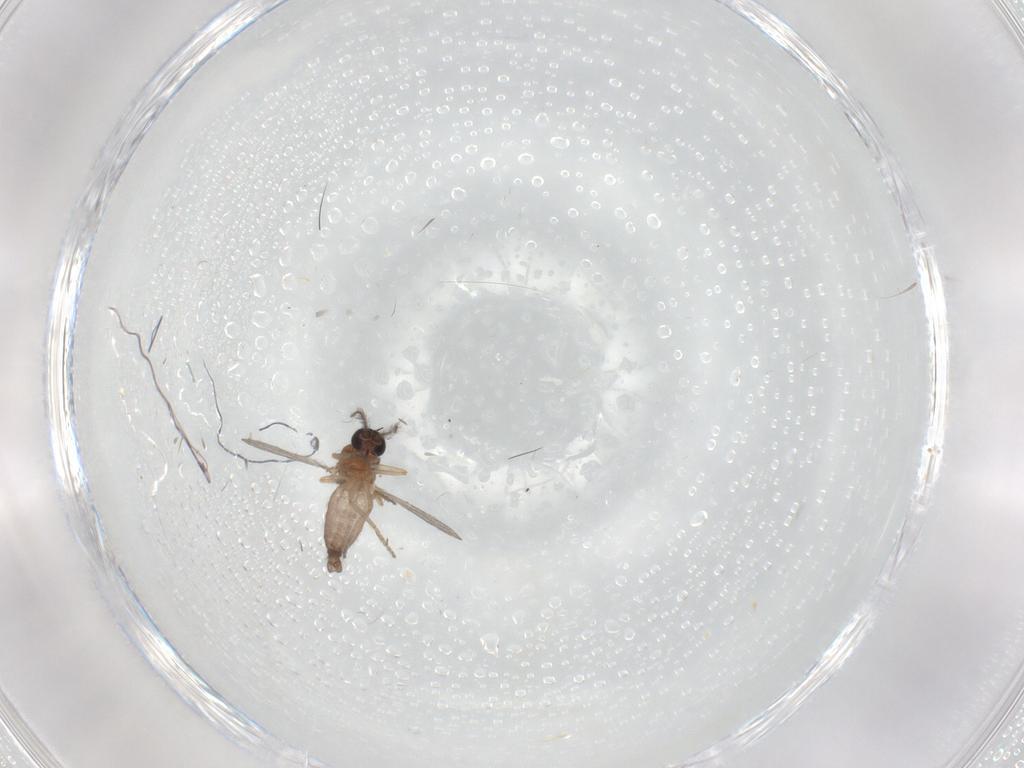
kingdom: Animalia
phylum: Arthropoda
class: Insecta
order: Diptera
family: Ceratopogonidae
